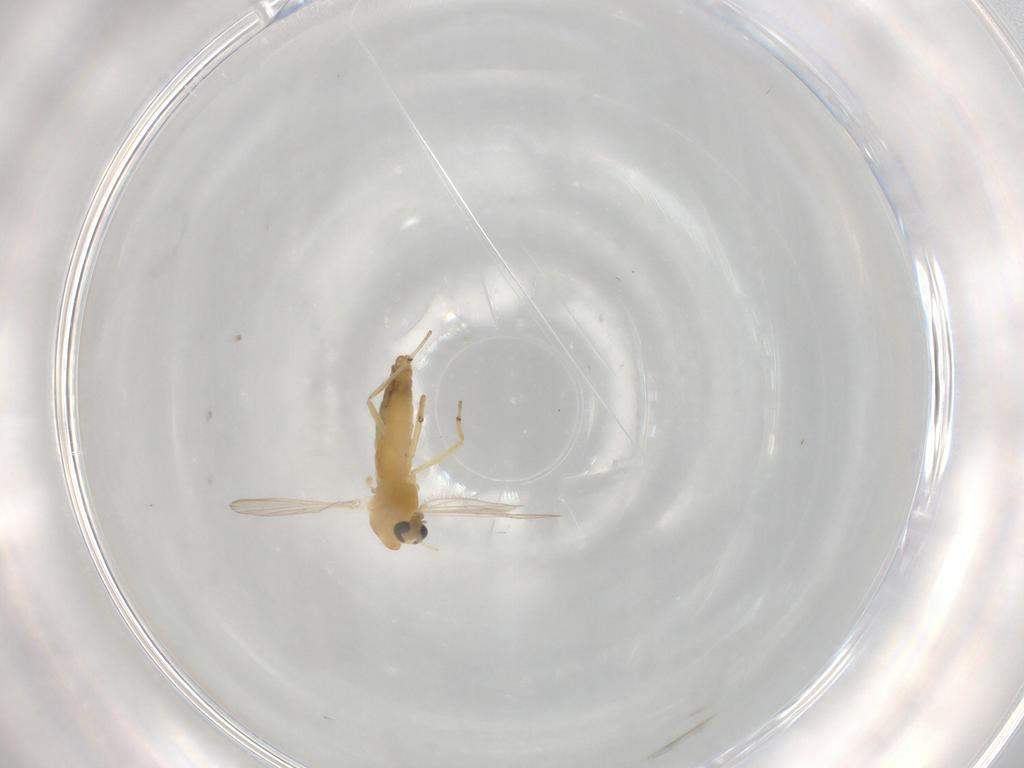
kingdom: Animalia
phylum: Arthropoda
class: Insecta
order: Diptera
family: Chironomidae
